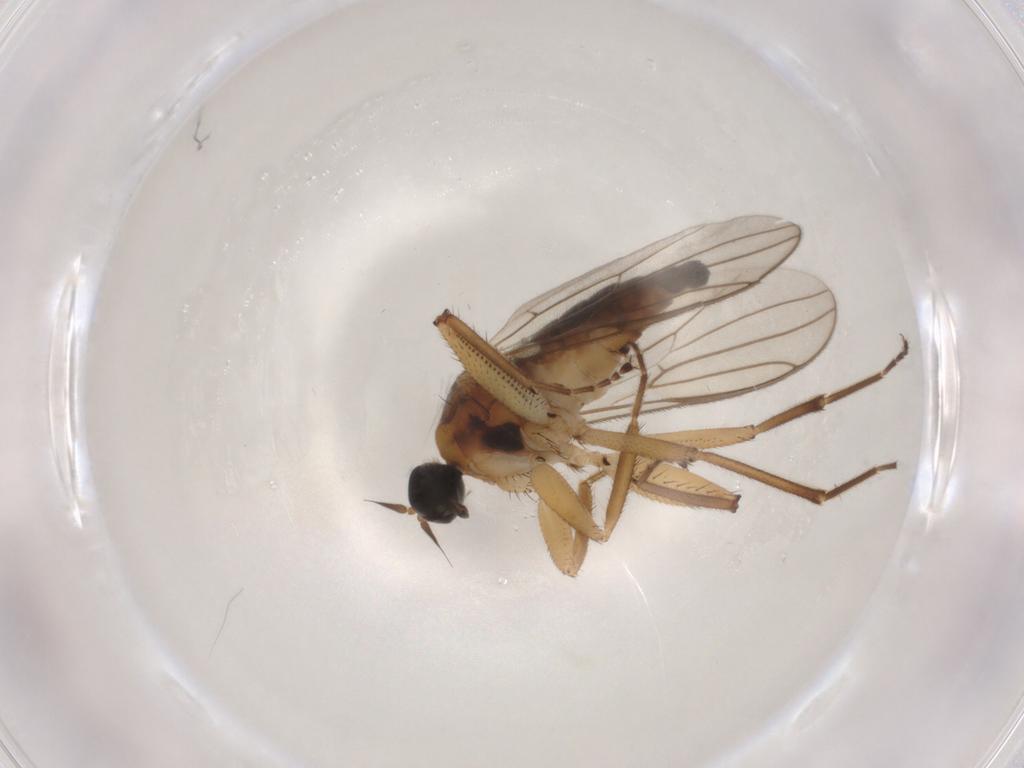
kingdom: Animalia
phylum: Arthropoda
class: Insecta
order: Diptera
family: Hybotidae
